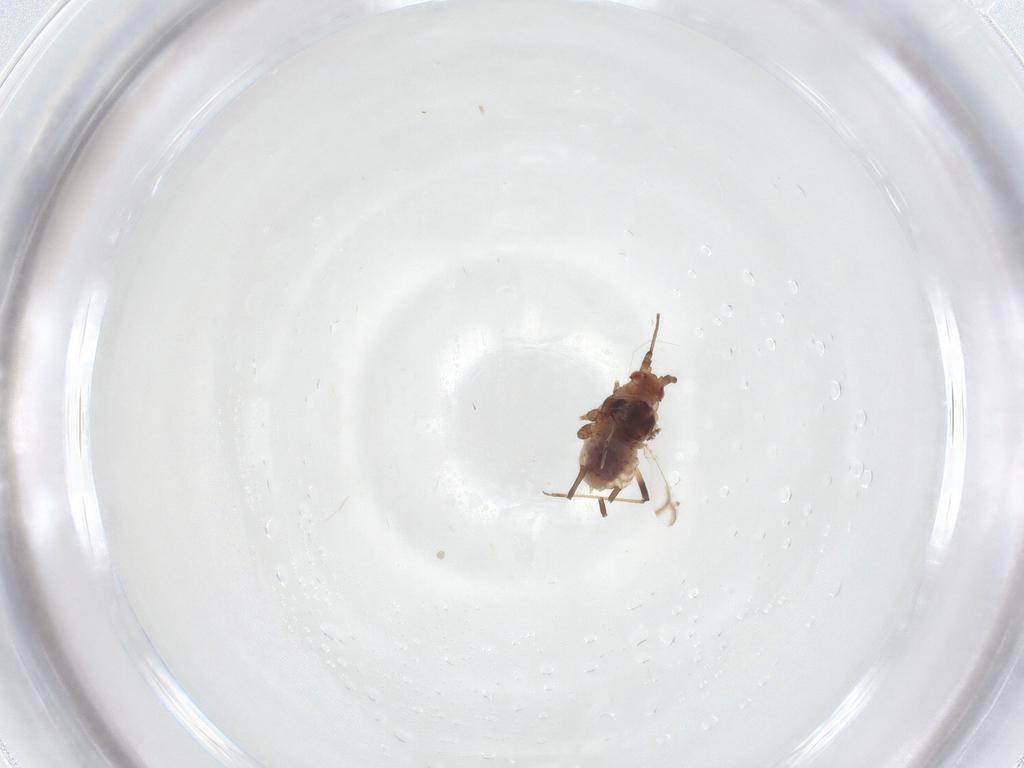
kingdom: Animalia
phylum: Arthropoda
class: Insecta
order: Hemiptera
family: Aphididae
